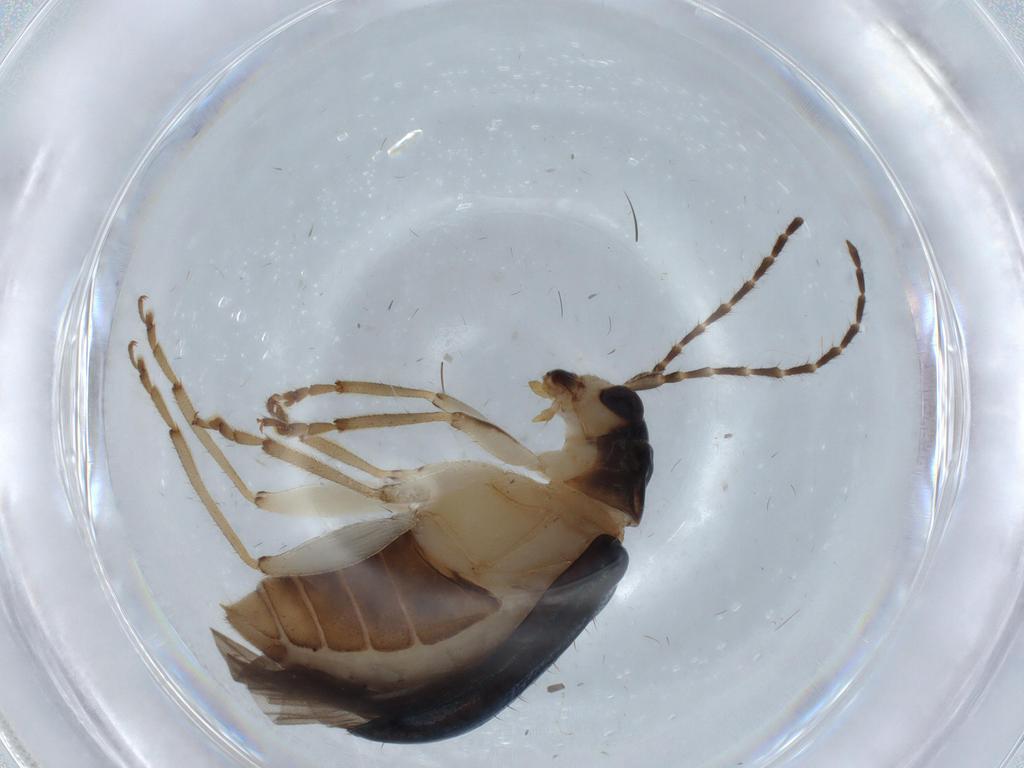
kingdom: Animalia
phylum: Arthropoda
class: Insecta
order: Coleoptera
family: Chrysomelidae
